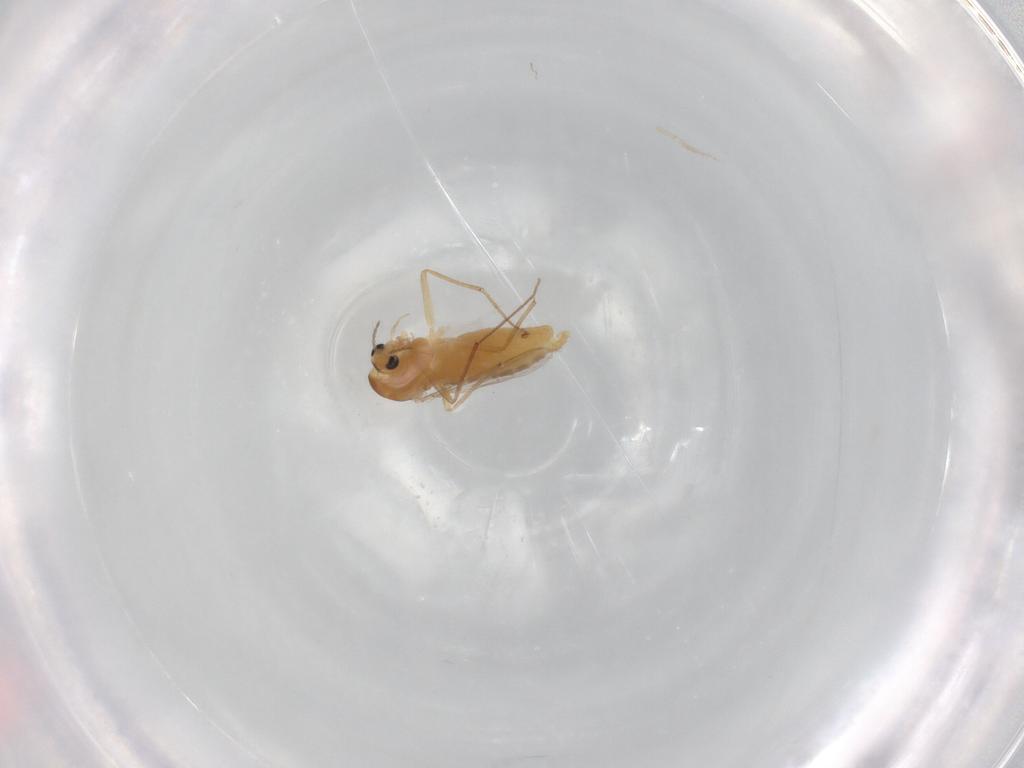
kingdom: Animalia
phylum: Arthropoda
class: Insecta
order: Diptera
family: Chironomidae
